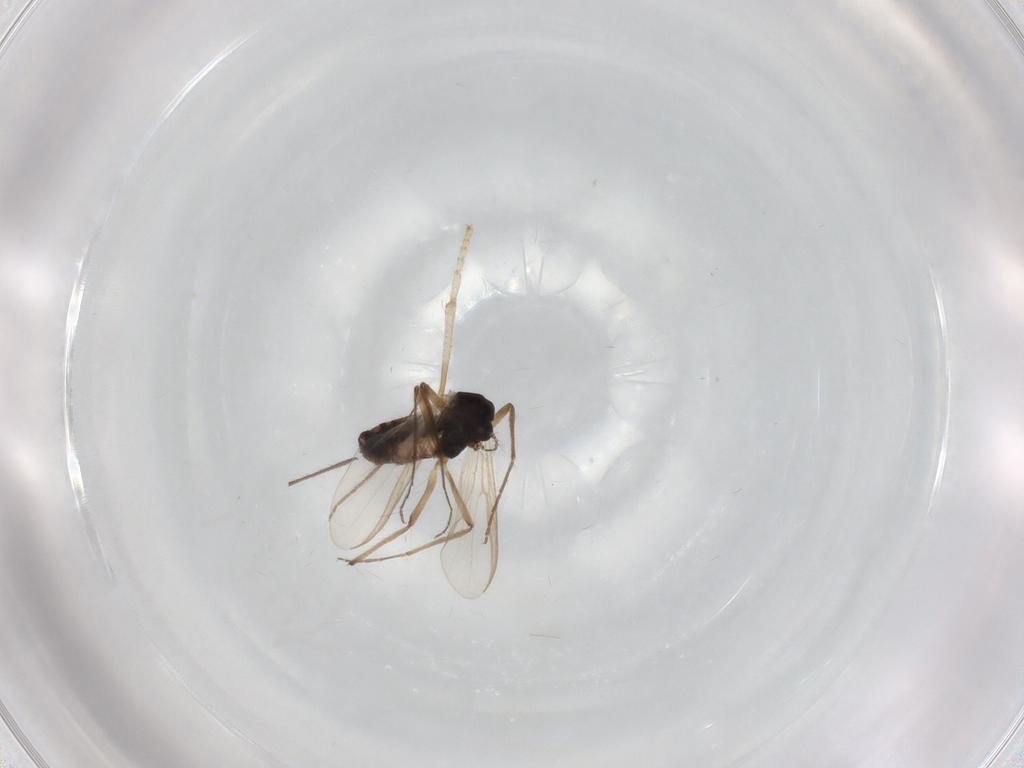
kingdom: Animalia
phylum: Arthropoda
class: Insecta
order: Diptera
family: Chironomidae
